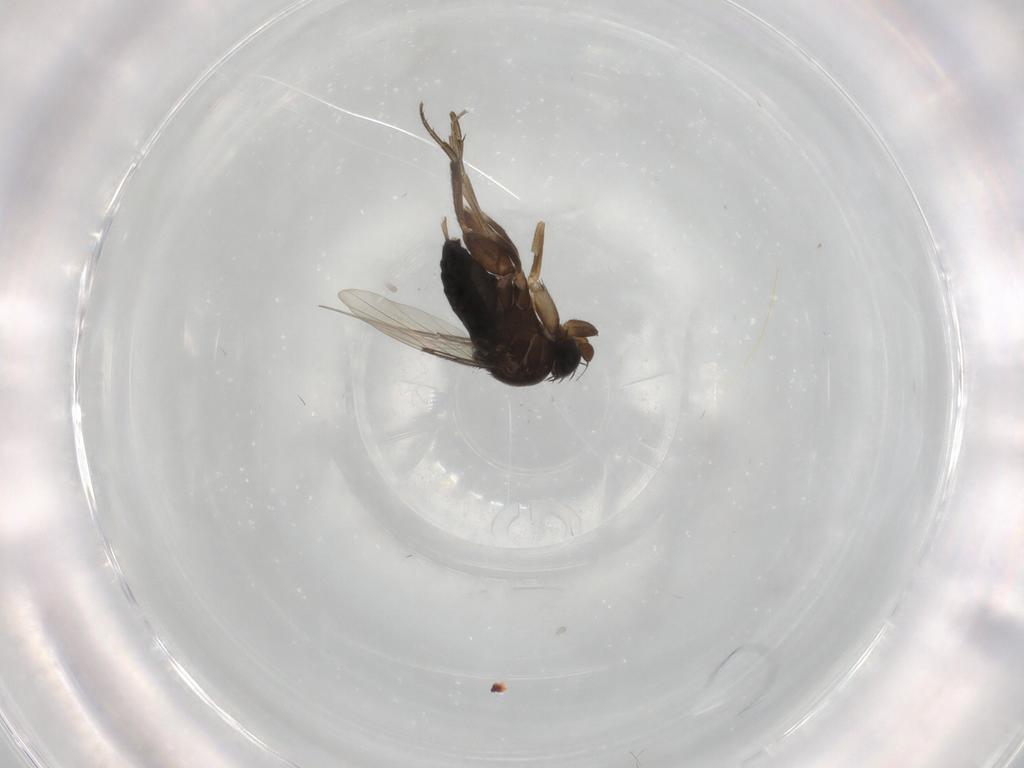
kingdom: Animalia
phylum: Arthropoda
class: Insecta
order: Diptera
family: Phoridae
